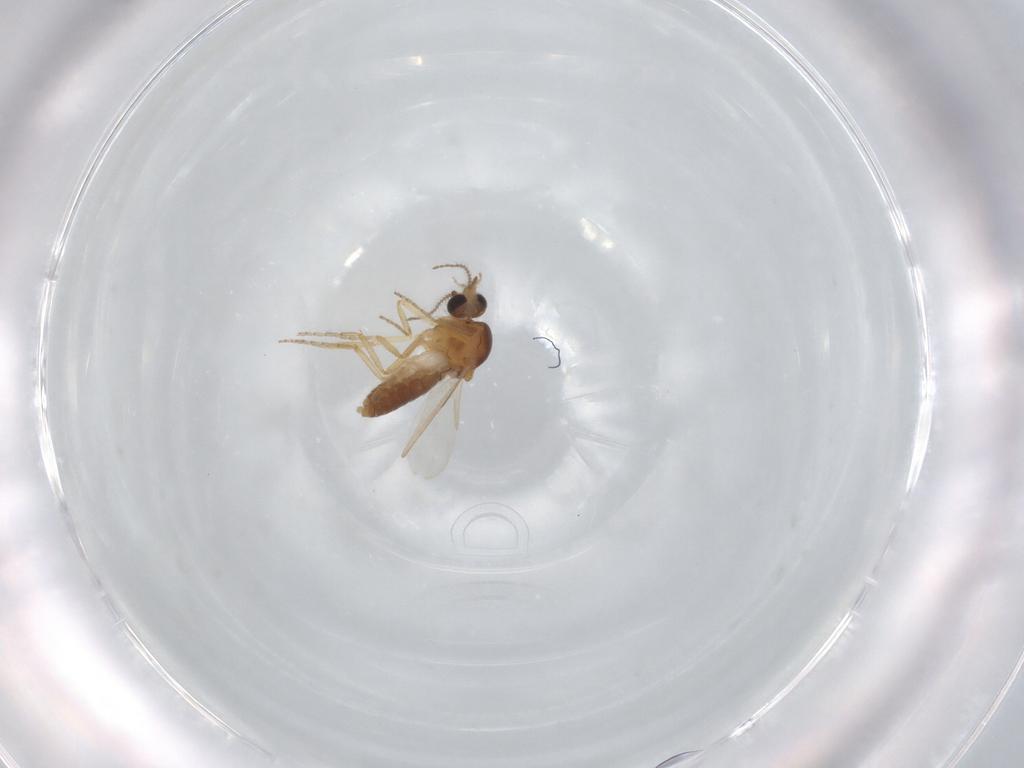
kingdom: Animalia
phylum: Arthropoda
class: Insecta
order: Diptera
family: Ceratopogonidae
